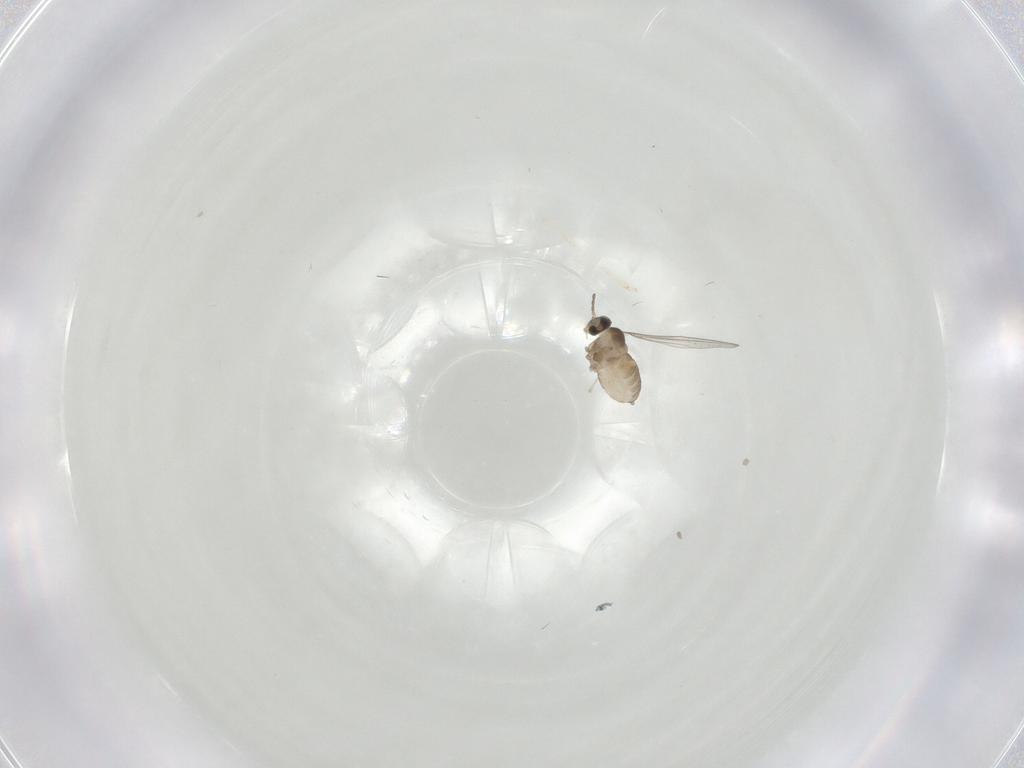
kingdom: Animalia
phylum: Arthropoda
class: Insecta
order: Diptera
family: Cecidomyiidae
